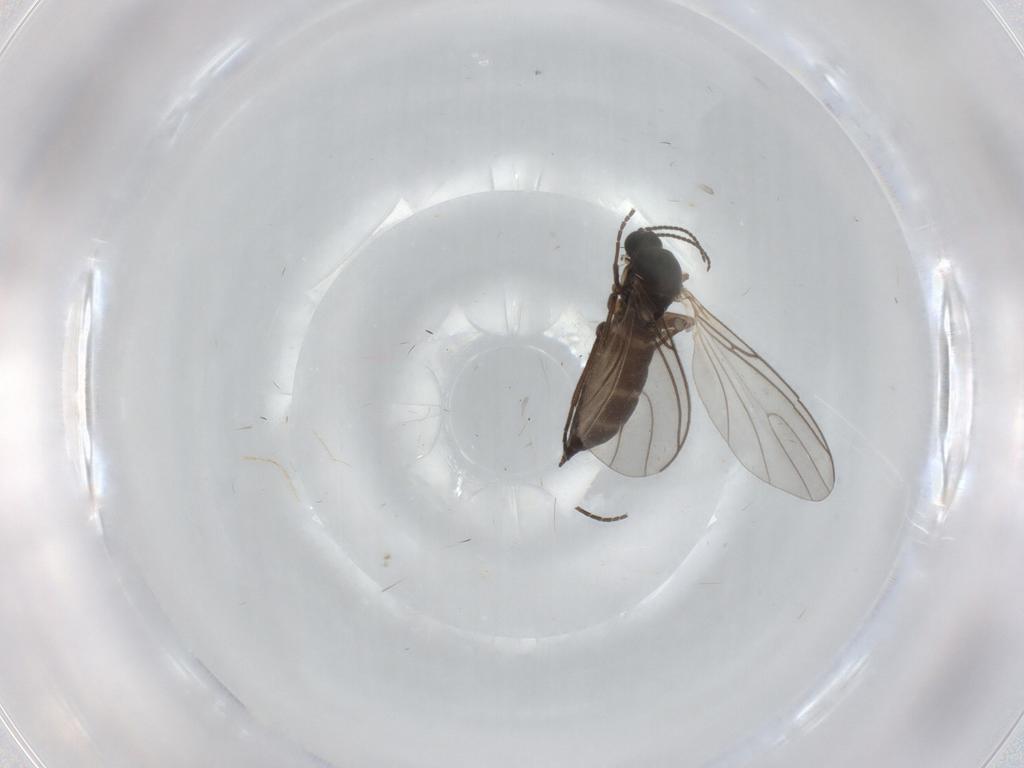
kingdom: Animalia
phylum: Arthropoda
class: Insecta
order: Diptera
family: Sciaridae
